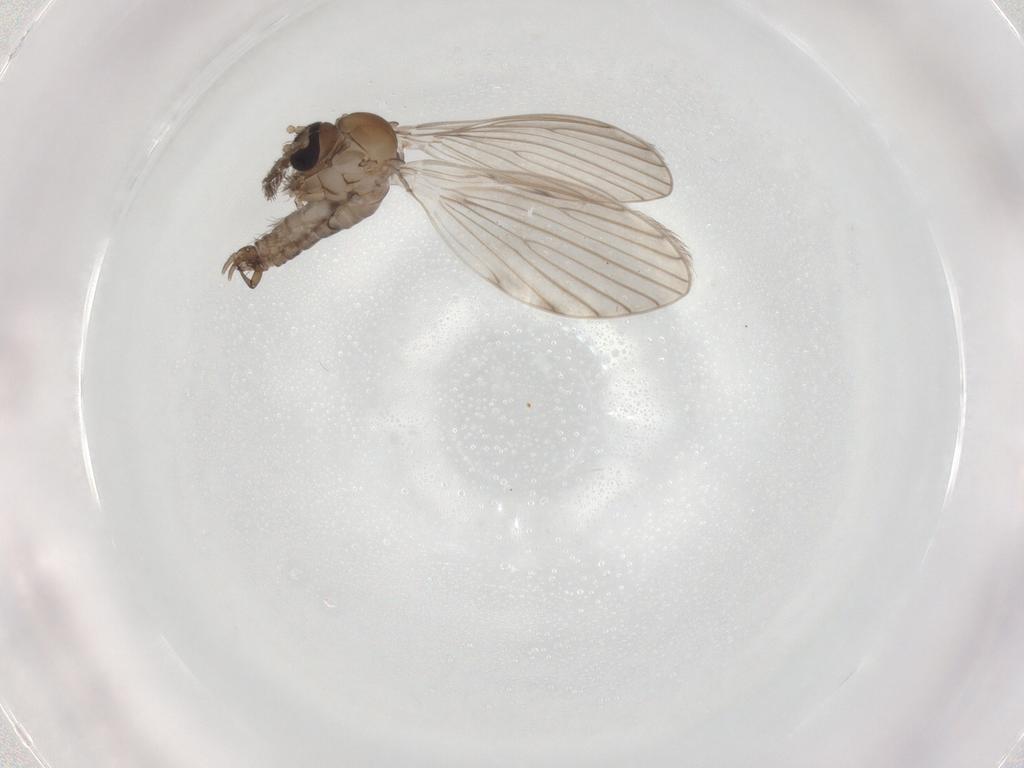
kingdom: Animalia
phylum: Arthropoda
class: Insecta
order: Diptera
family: Psychodidae
